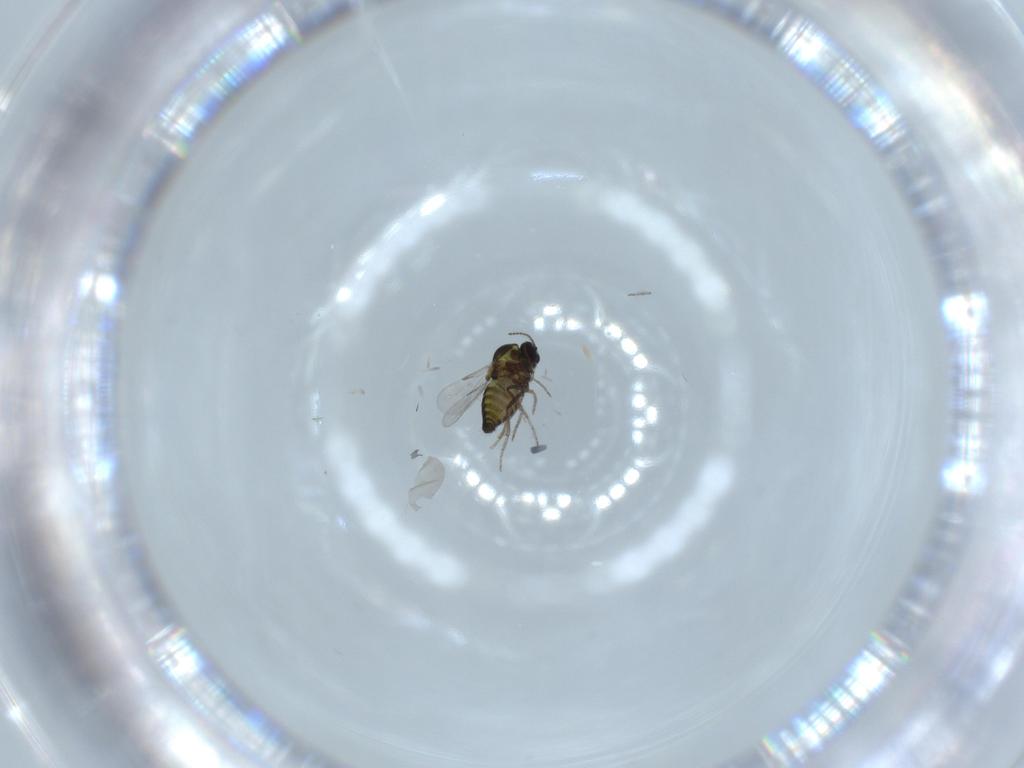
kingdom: Animalia
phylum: Arthropoda
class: Insecta
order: Diptera
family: Ceratopogonidae
